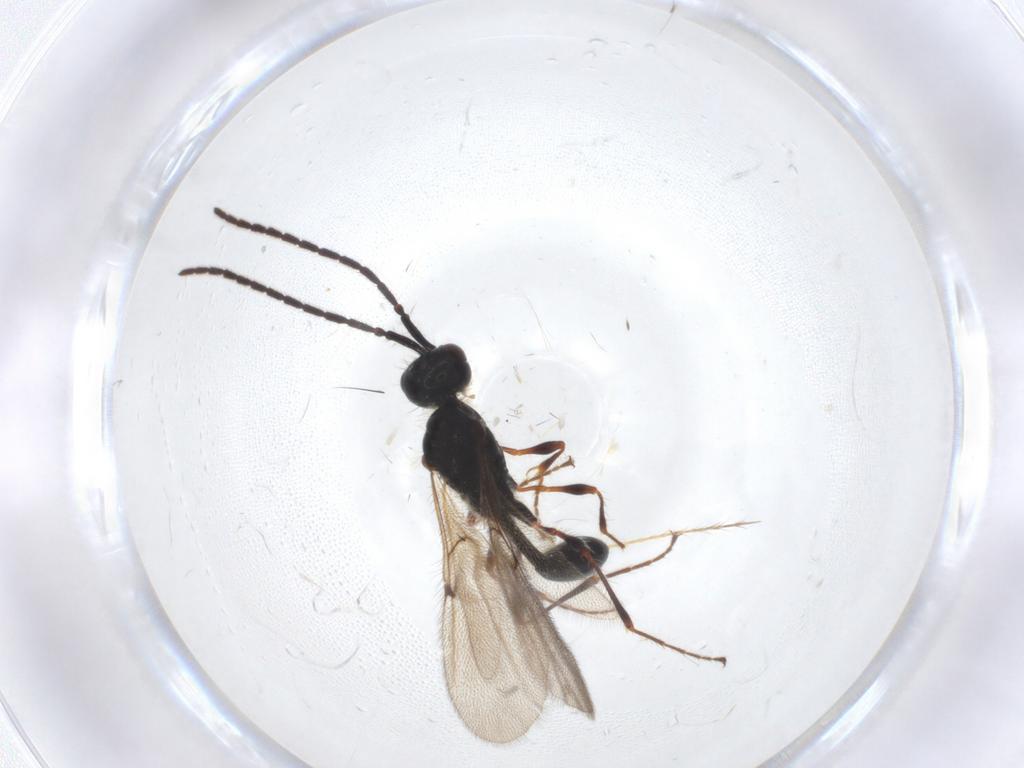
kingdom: Animalia
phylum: Arthropoda
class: Insecta
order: Hymenoptera
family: Diapriidae
